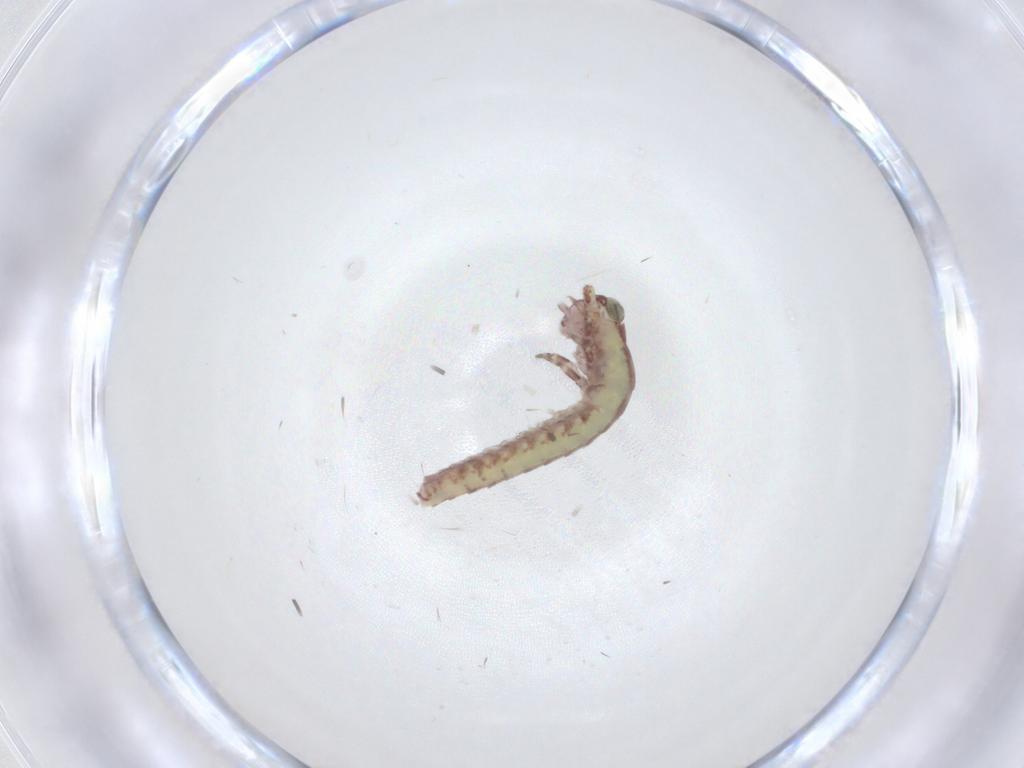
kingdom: Animalia
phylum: Arthropoda
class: Insecta
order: Archaeognatha
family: Machilidae
